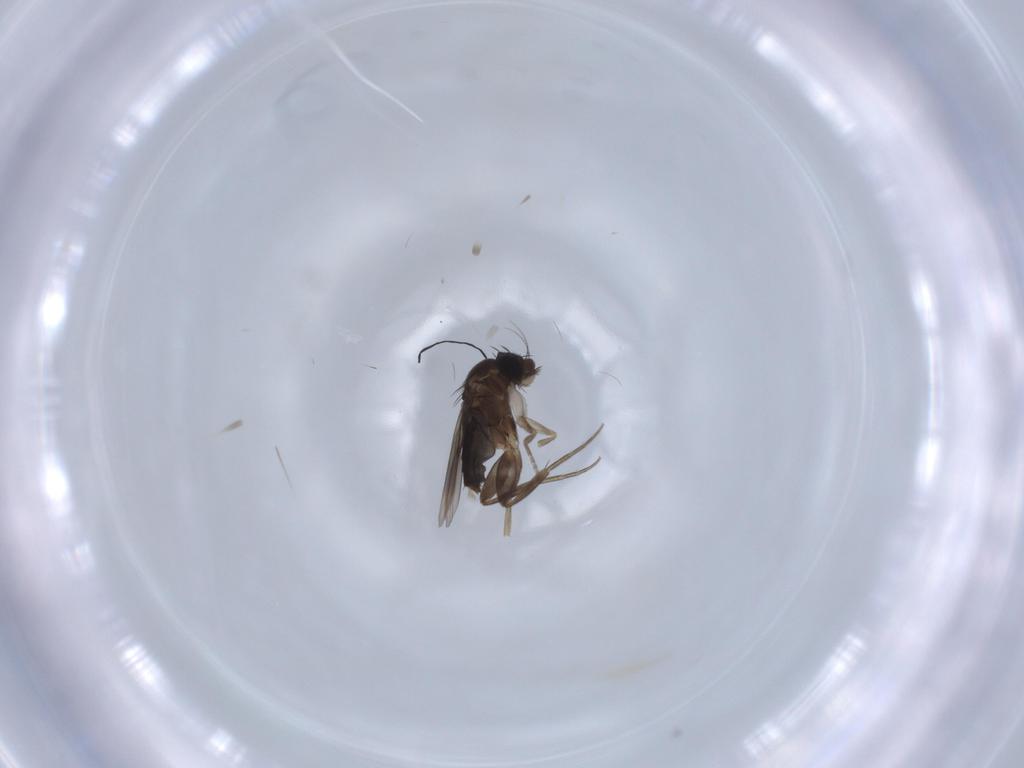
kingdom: Animalia
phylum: Arthropoda
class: Insecta
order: Diptera
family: Phoridae
